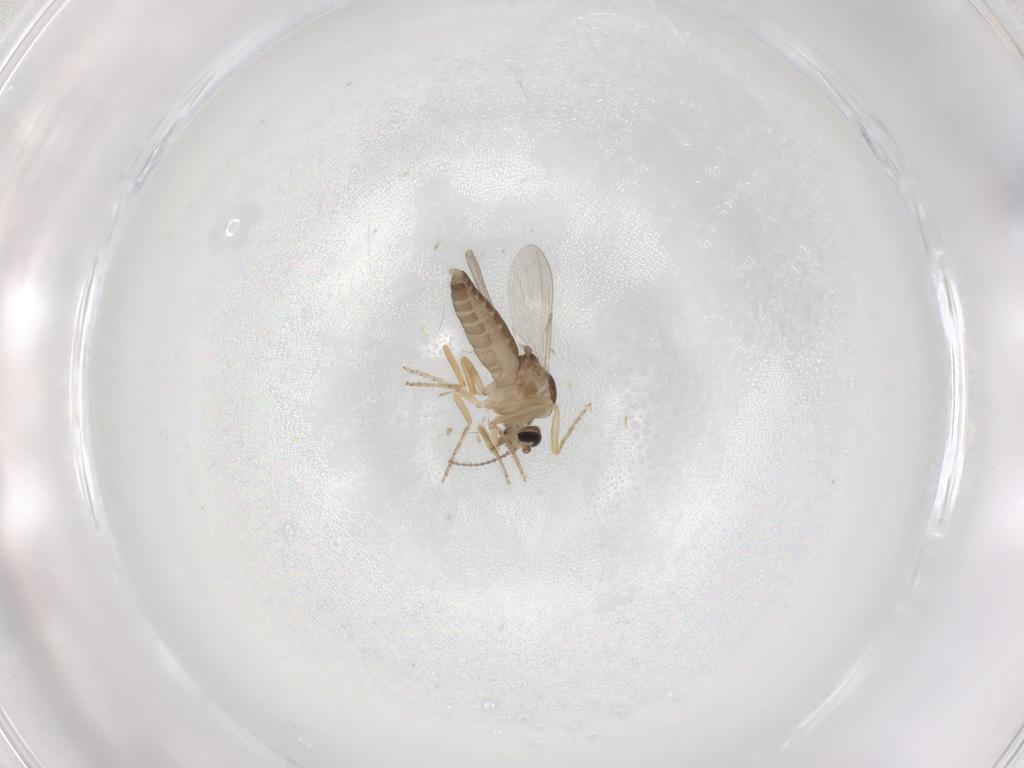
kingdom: Animalia
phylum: Arthropoda
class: Insecta
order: Diptera
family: Ceratopogonidae
